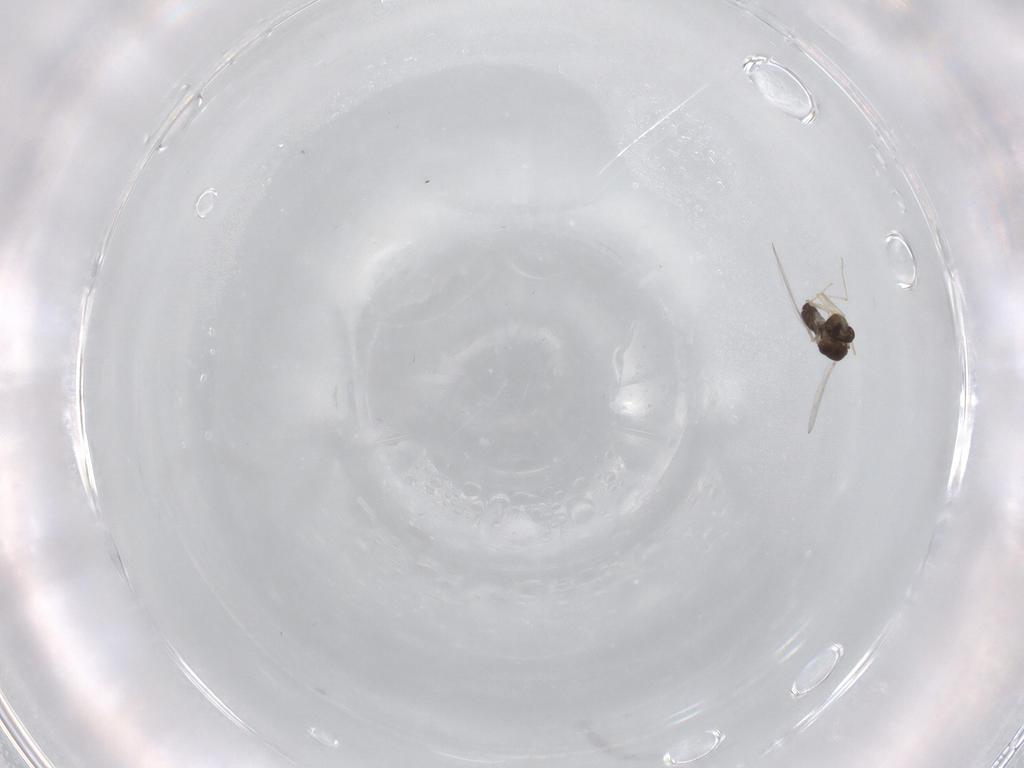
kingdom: Animalia
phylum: Arthropoda
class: Insecta
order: Diptera
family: Chironomidae
